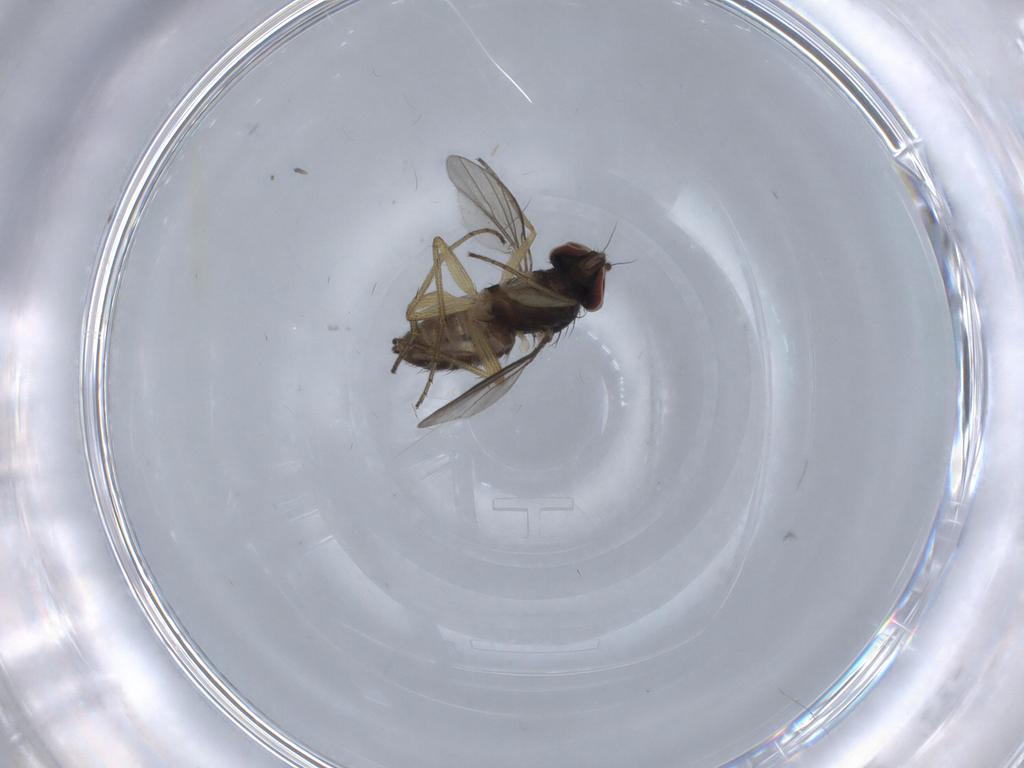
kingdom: Animalia
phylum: Arthropoda
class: Insecta
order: Diptera
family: Dolichopodidae
